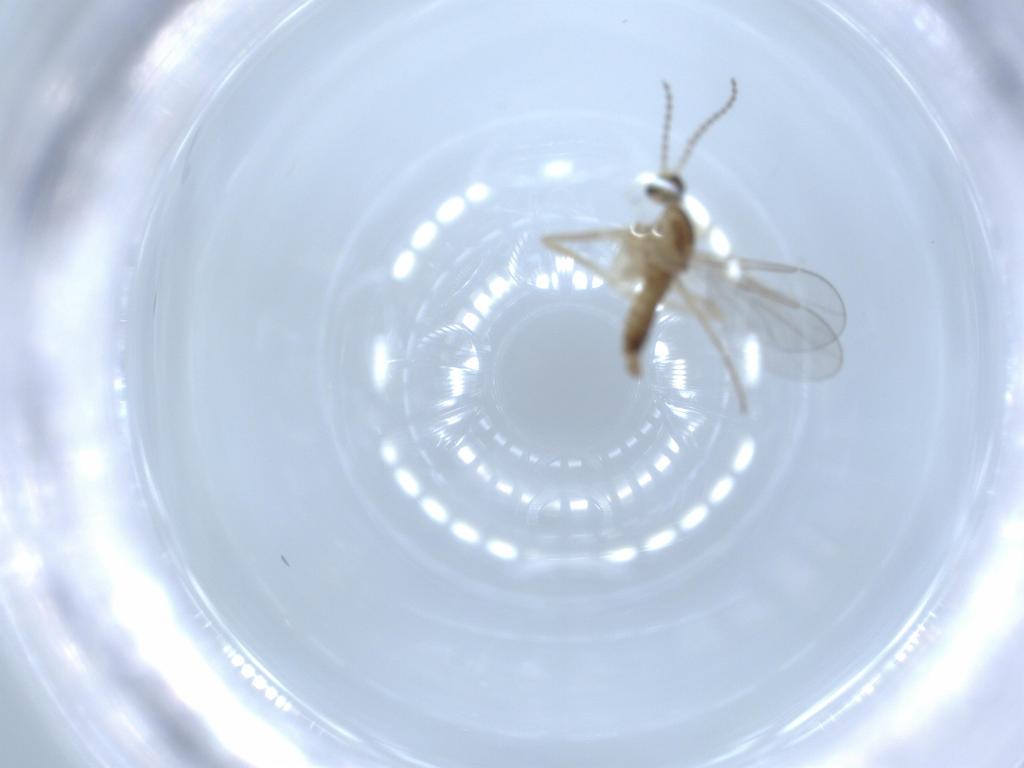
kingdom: Animalia
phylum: Arthropoda
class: Insecta
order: Diptera
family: Cecidomyiidae
